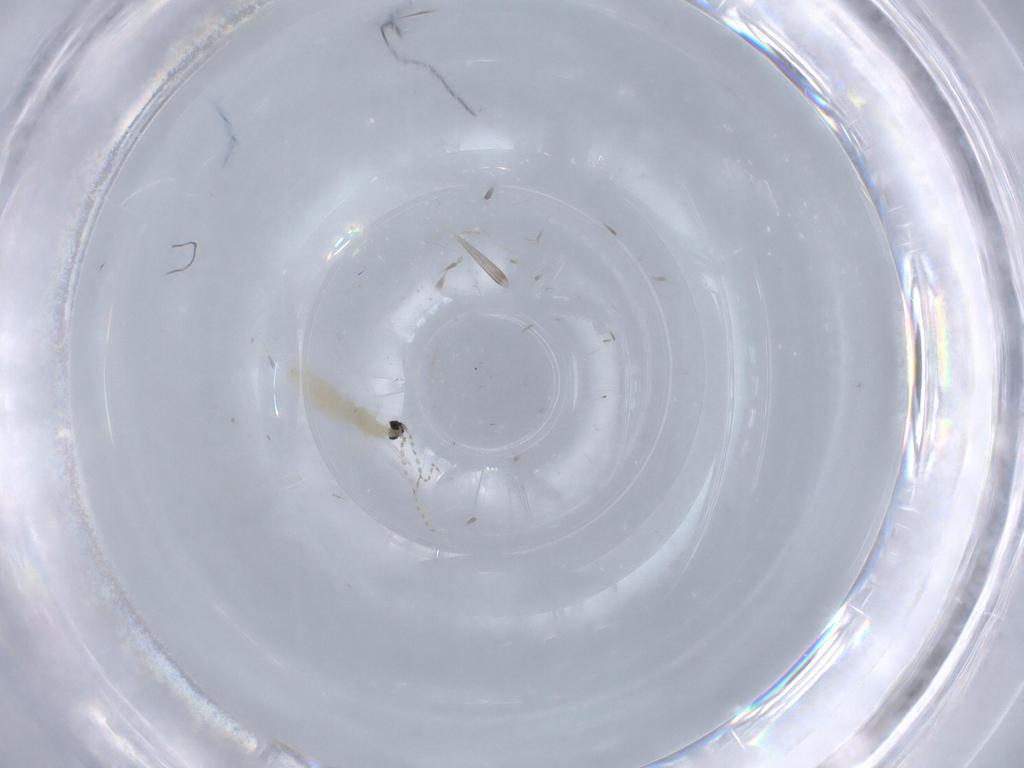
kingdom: Animalia
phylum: Arthropoda
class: Insecta
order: Diptera
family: Cecidomyiidae
